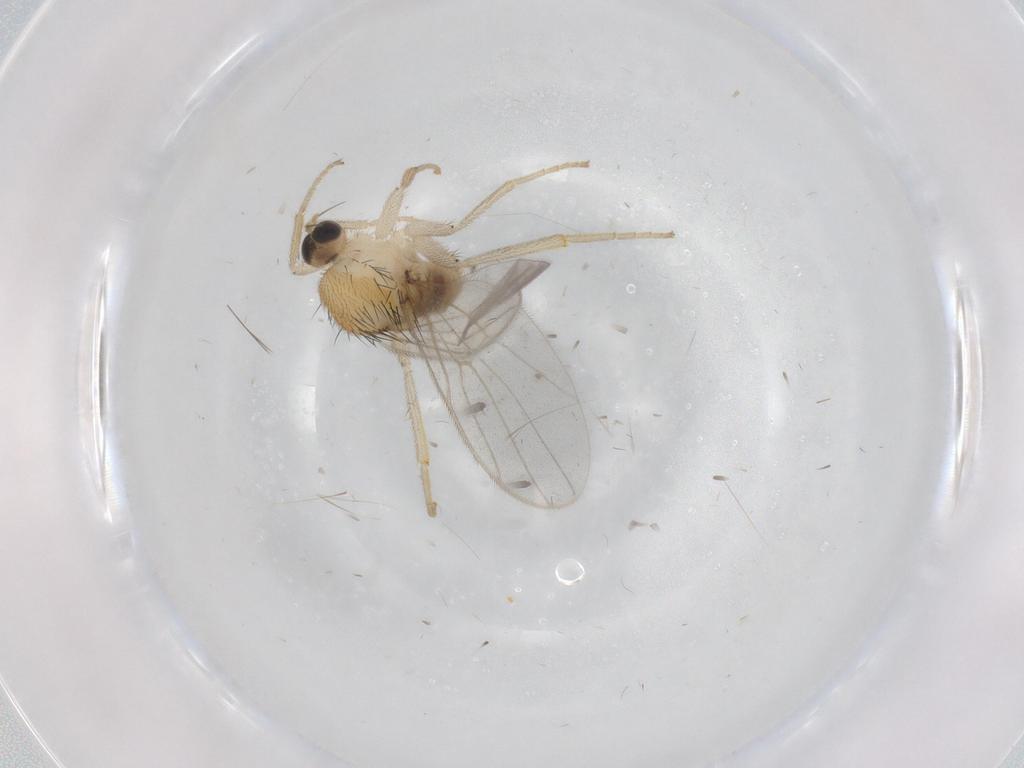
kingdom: Animalia
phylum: Arthropoda
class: Insecta
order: Diptera
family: Hybotidae
